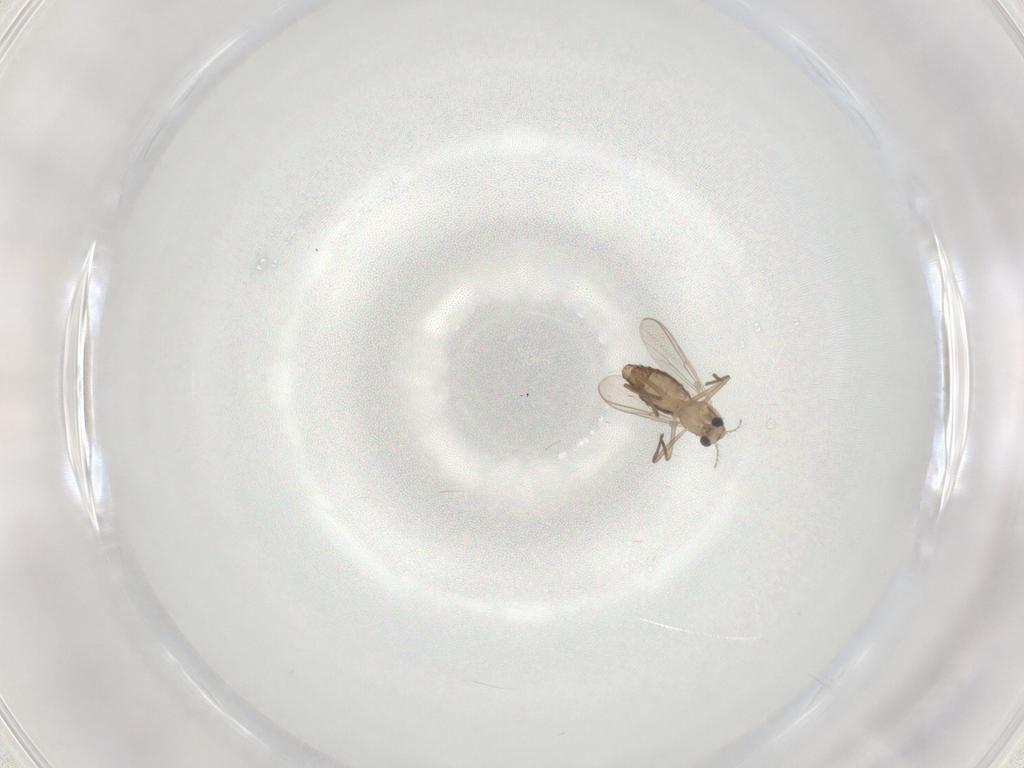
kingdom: Animalia
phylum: Arthropoda
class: Insecta
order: Diptera
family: Chironomidae
